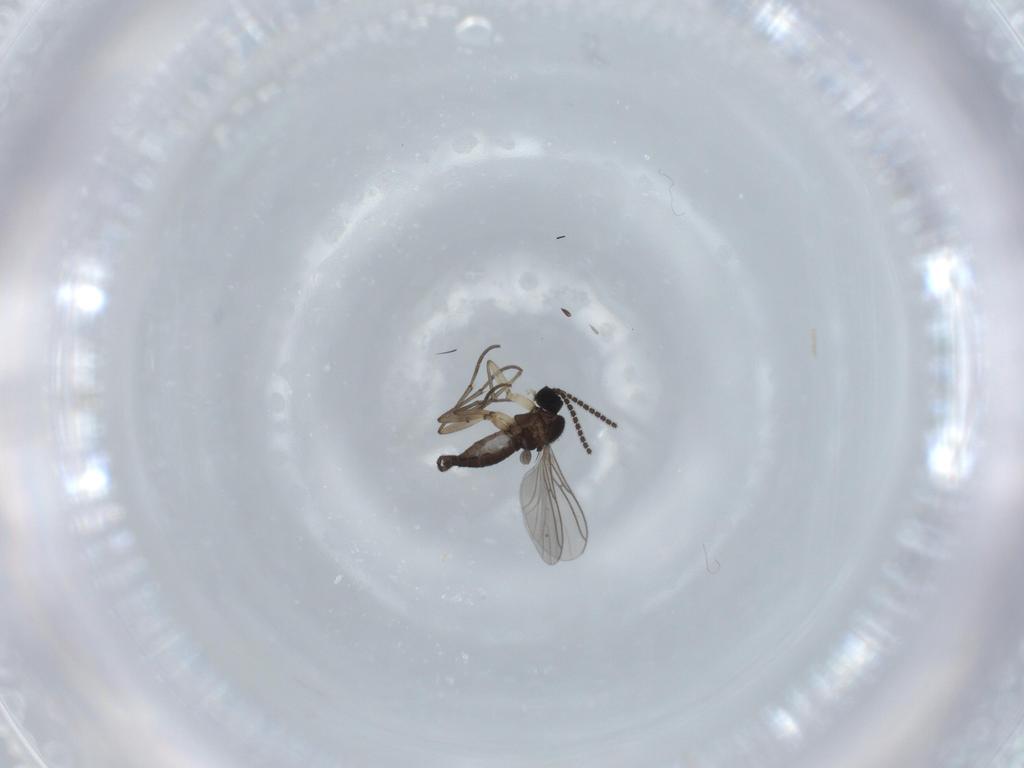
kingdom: Animalia
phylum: Arthropoda
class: Insecta
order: Diptera
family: Sciaridae
